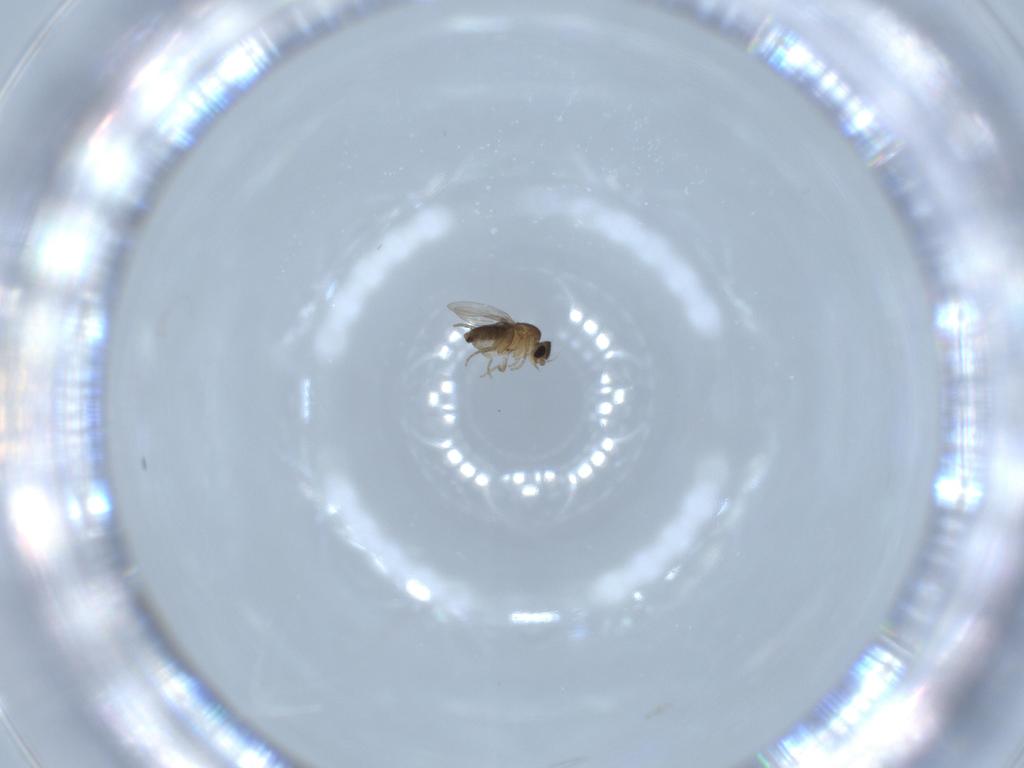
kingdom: Animalia
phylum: Arthropoda
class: Insecta
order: Diptera
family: Phoridae
